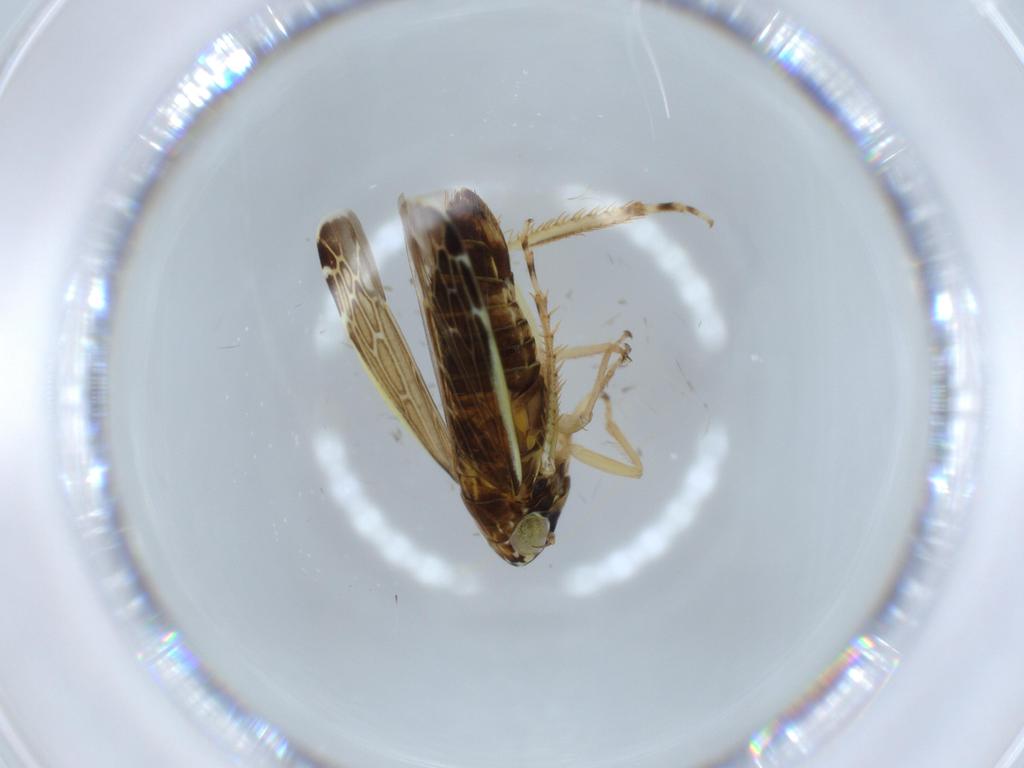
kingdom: Animalia
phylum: Arthropoda
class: Insecta
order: Hemiptera
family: Cicadellidae
